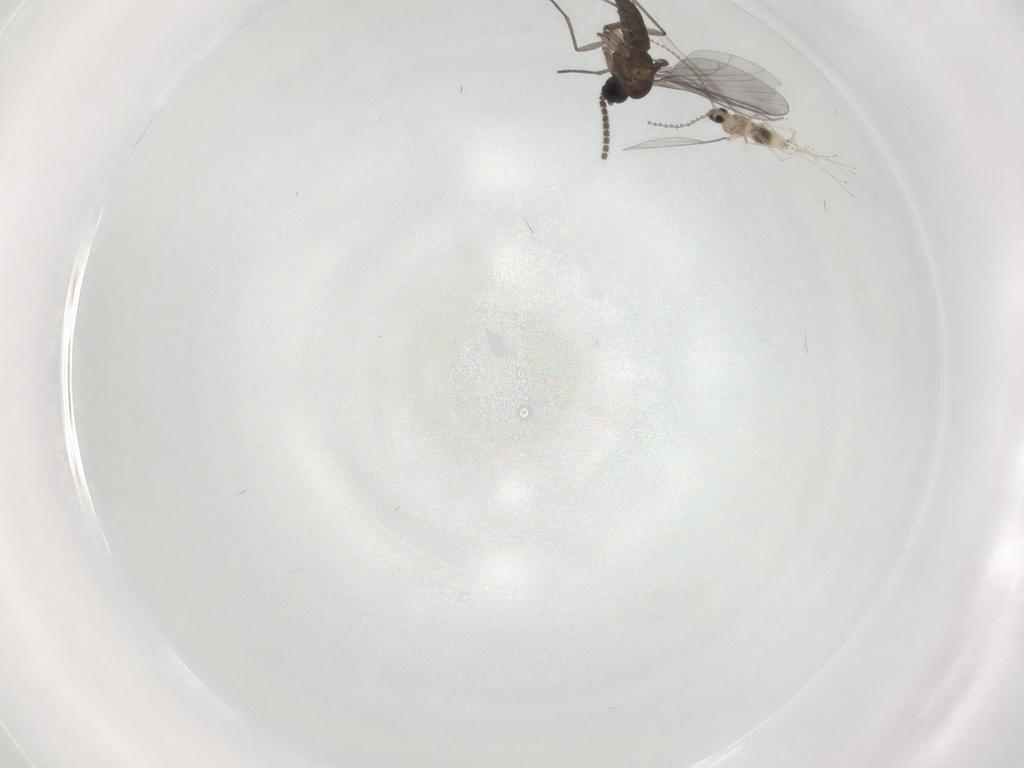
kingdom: Animalia
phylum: Arthropoda
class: Insecta
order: Diptera
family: Cecidomyiidae
